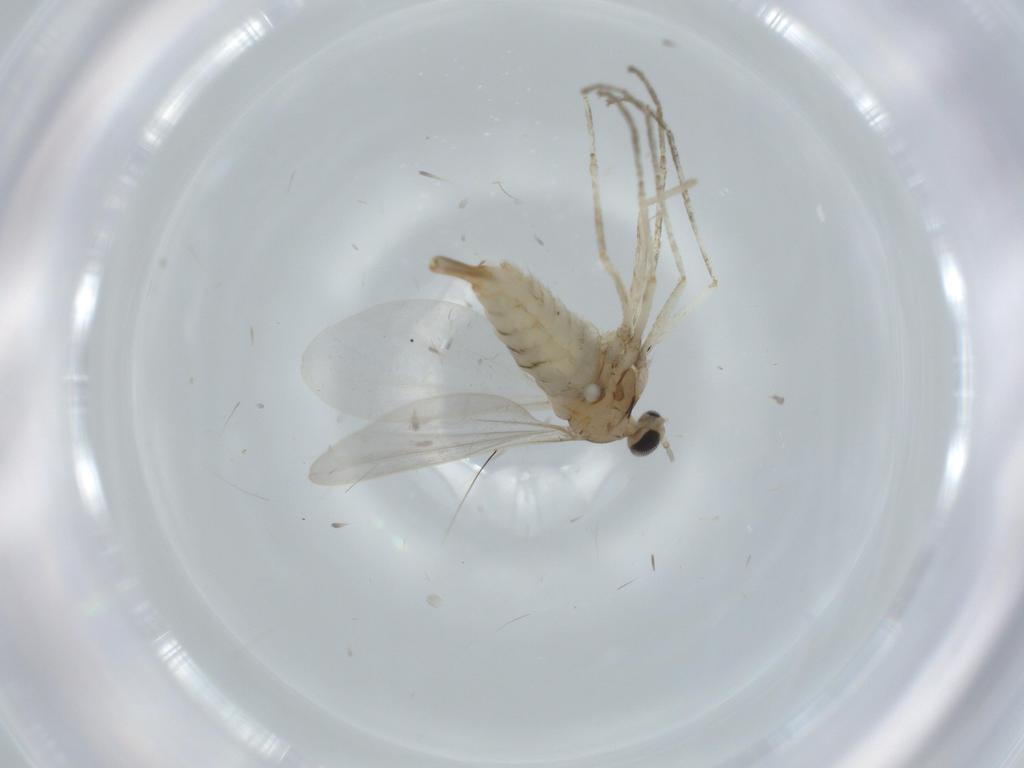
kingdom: Animalia
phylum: Arthropoda
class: Insecta
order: Diptera
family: Cecidomyiidae
